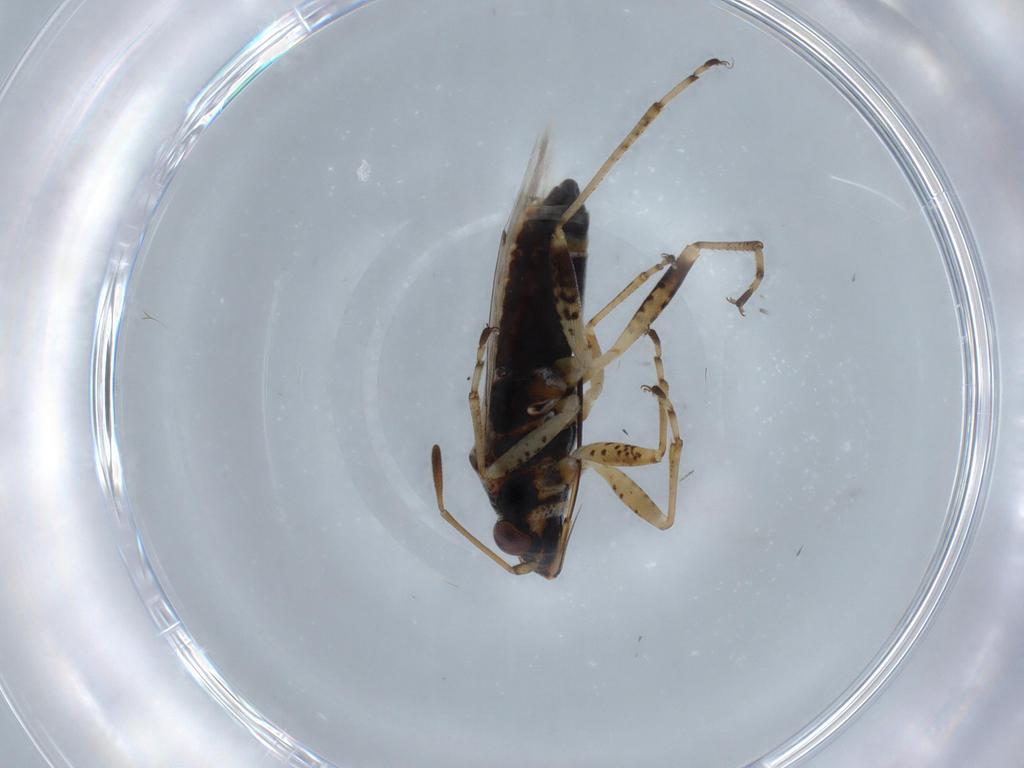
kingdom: Animalia
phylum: Arthropoda
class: Insecta
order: Hemiptera
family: Lygaeidae
